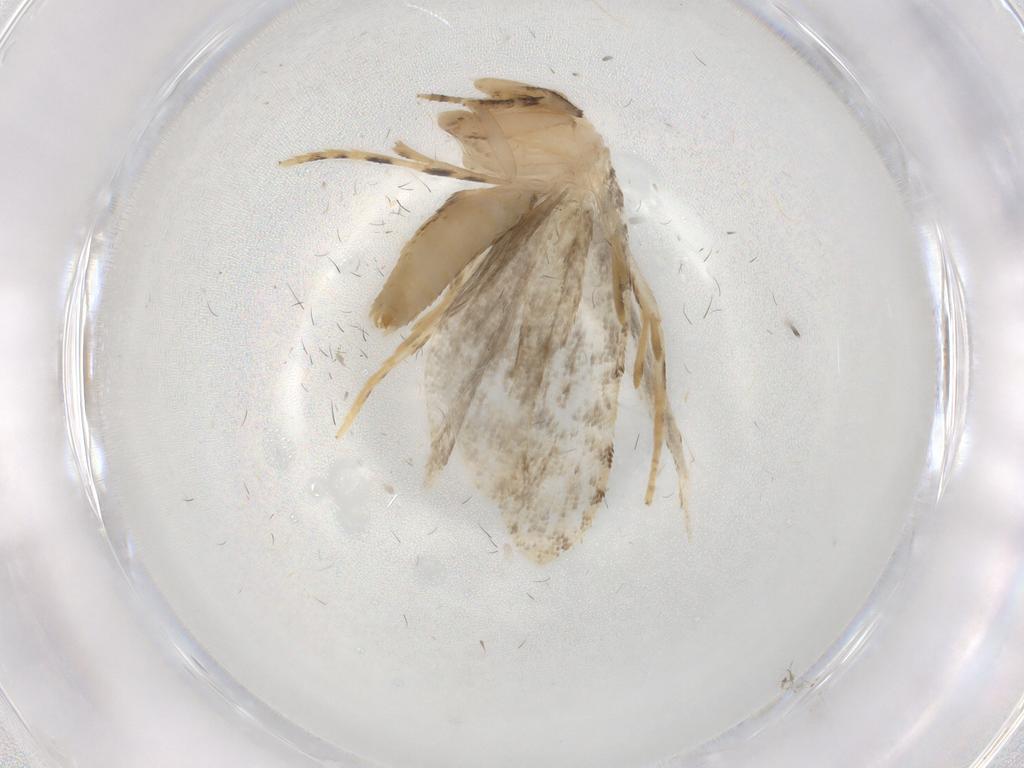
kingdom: Animalia
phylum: Arthropoda
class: Insecta
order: Lepidoptera
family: Tineidae
